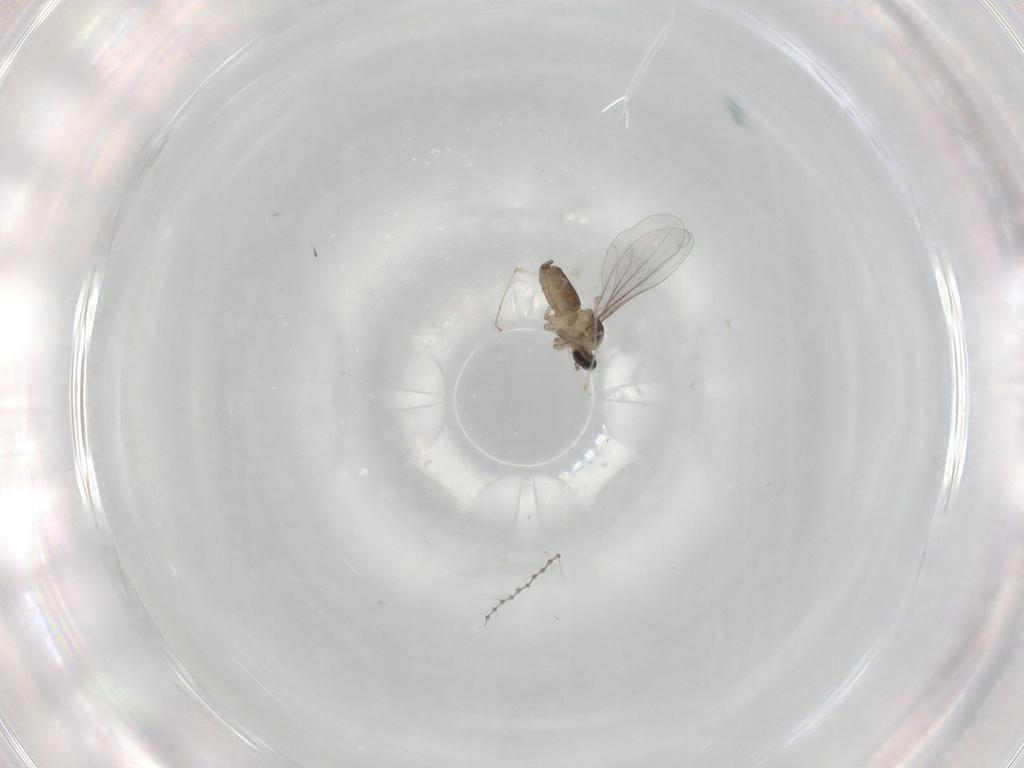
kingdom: Animalia
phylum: Arthropoda
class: Insecta
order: Diptera
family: Cecidomyiidae
